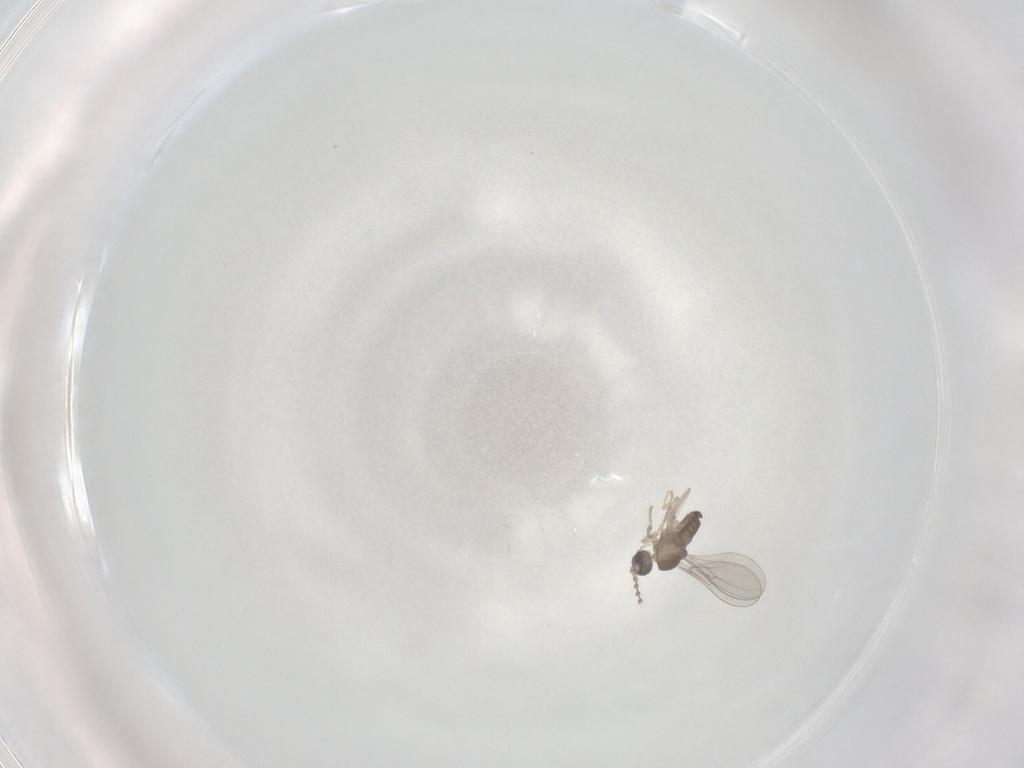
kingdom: Animalia
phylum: Arthropoda
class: Insecta
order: Diptera
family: Cecidomyiidae
